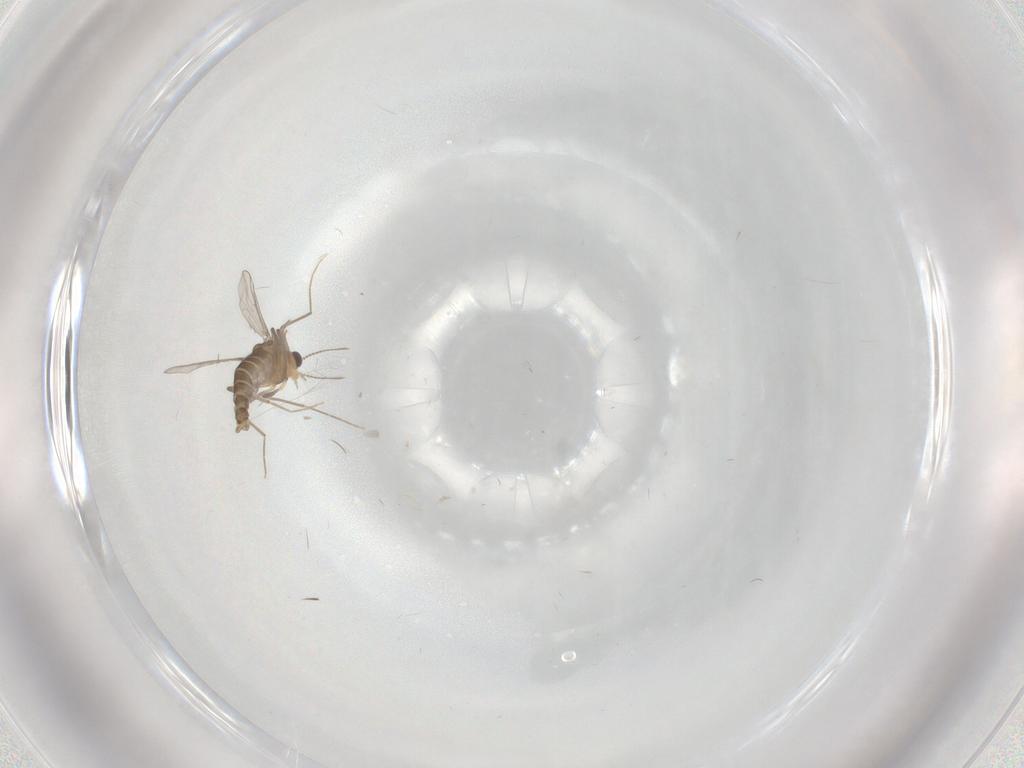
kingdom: Animalia
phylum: Arthropoda
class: Insecta
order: Diptera
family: Chironomidae
